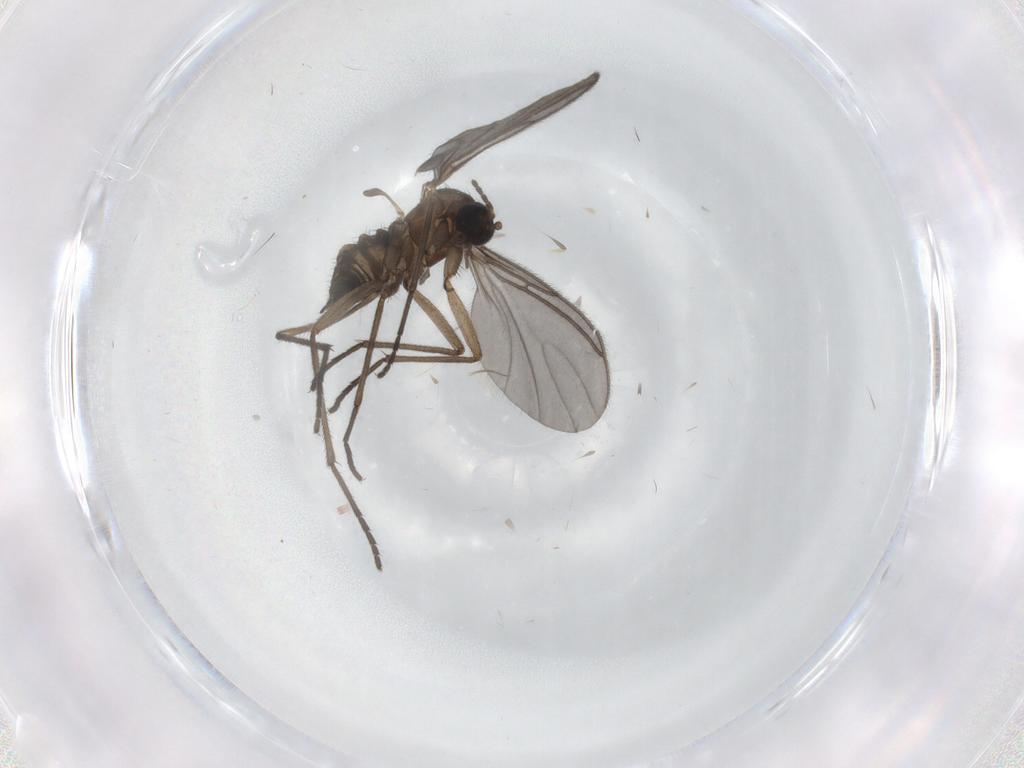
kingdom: Animalia
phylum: Arthropoda
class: Insecta
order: Diptera
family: Sciaridae
